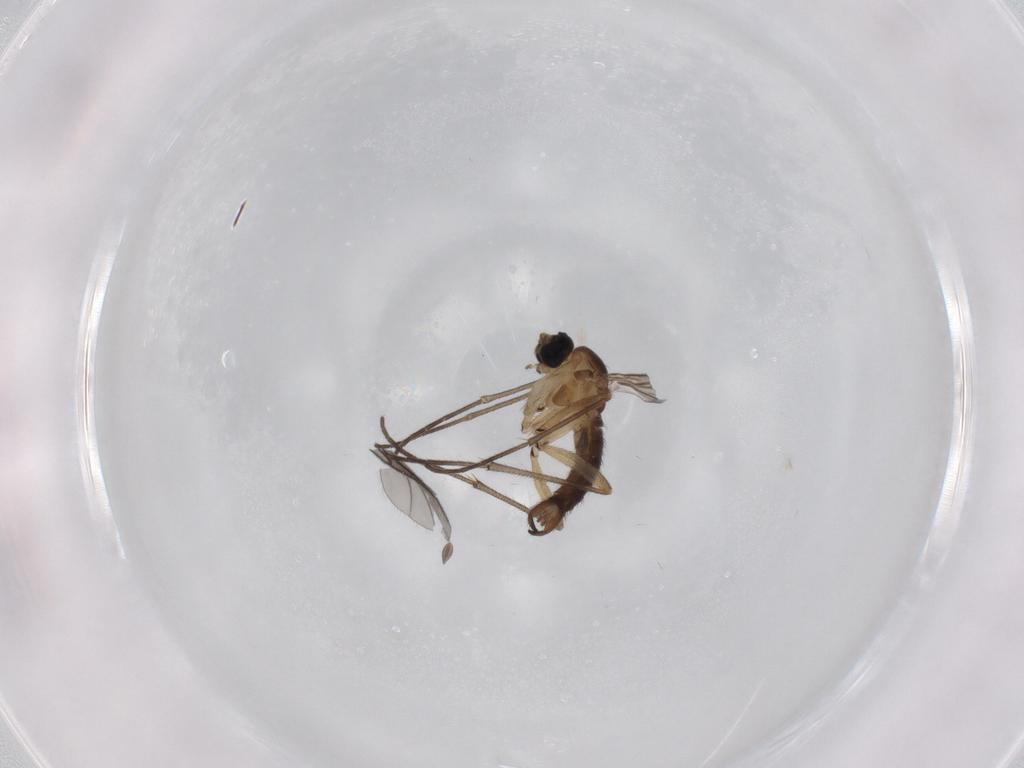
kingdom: Animalia
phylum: Arthropoda
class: Insecta
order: Diptera
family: Sciaridae
